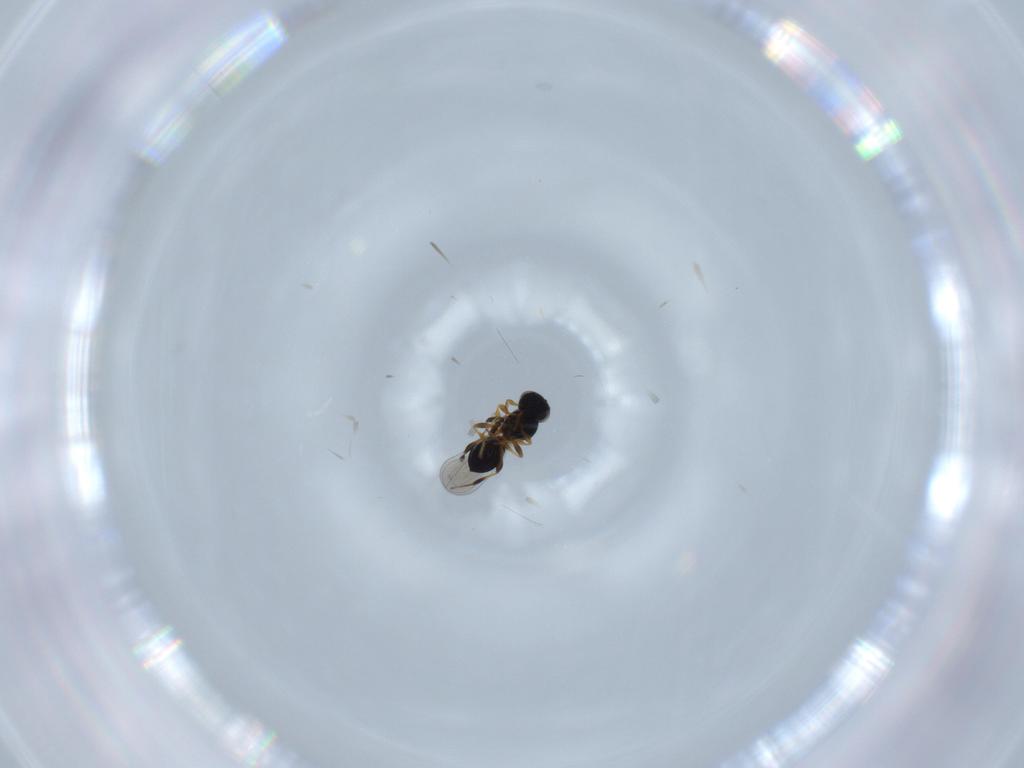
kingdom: Animalia
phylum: Arthropoda
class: Insecta
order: Hymenoptera
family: Platygastridae
